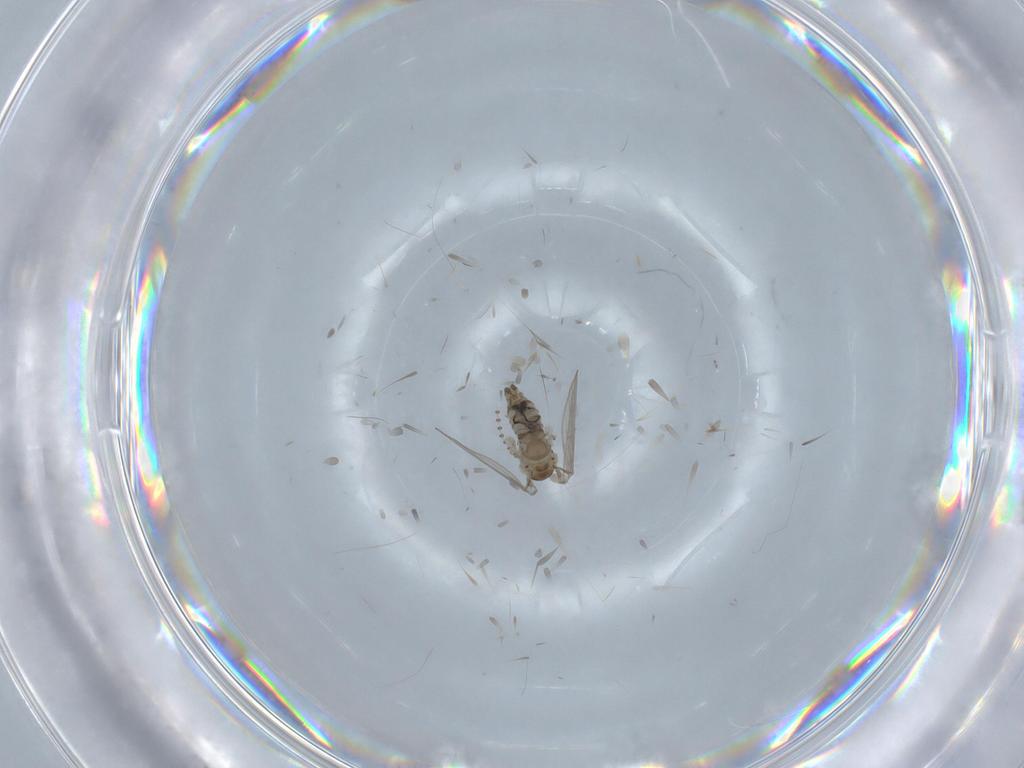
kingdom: Animalia
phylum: Arthropoda
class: Insecta
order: Diptera
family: Psychodidae
